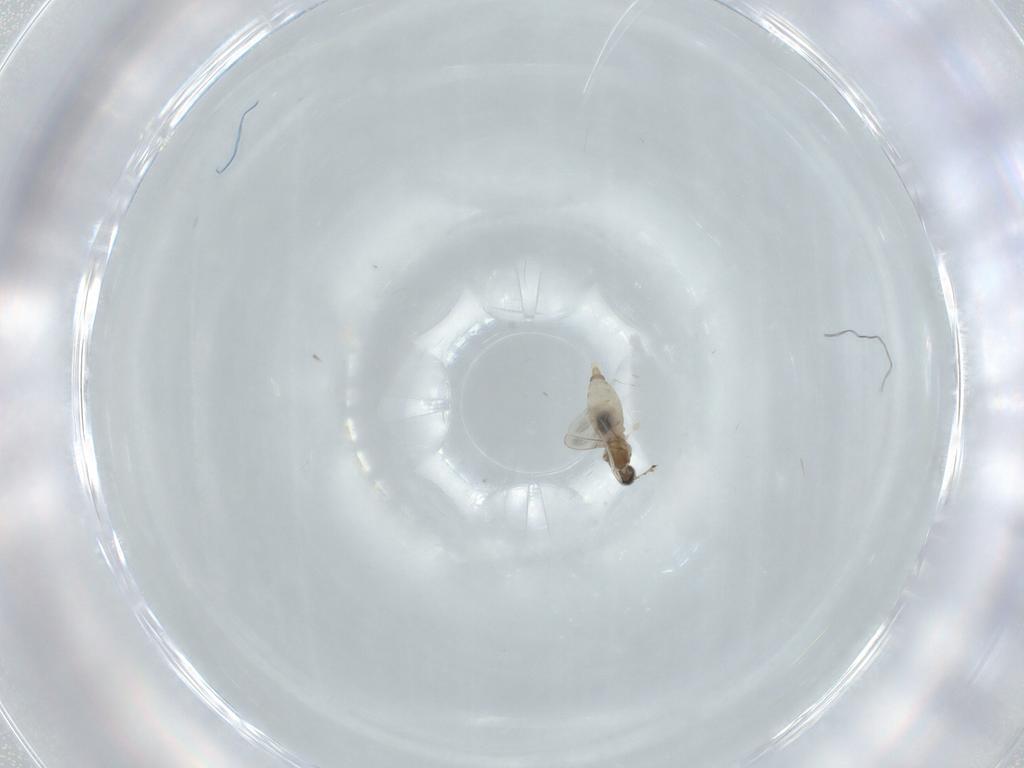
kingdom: Animalia
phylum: Arthropoda
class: Insecta
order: Diptera
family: Cecidomyiidae
